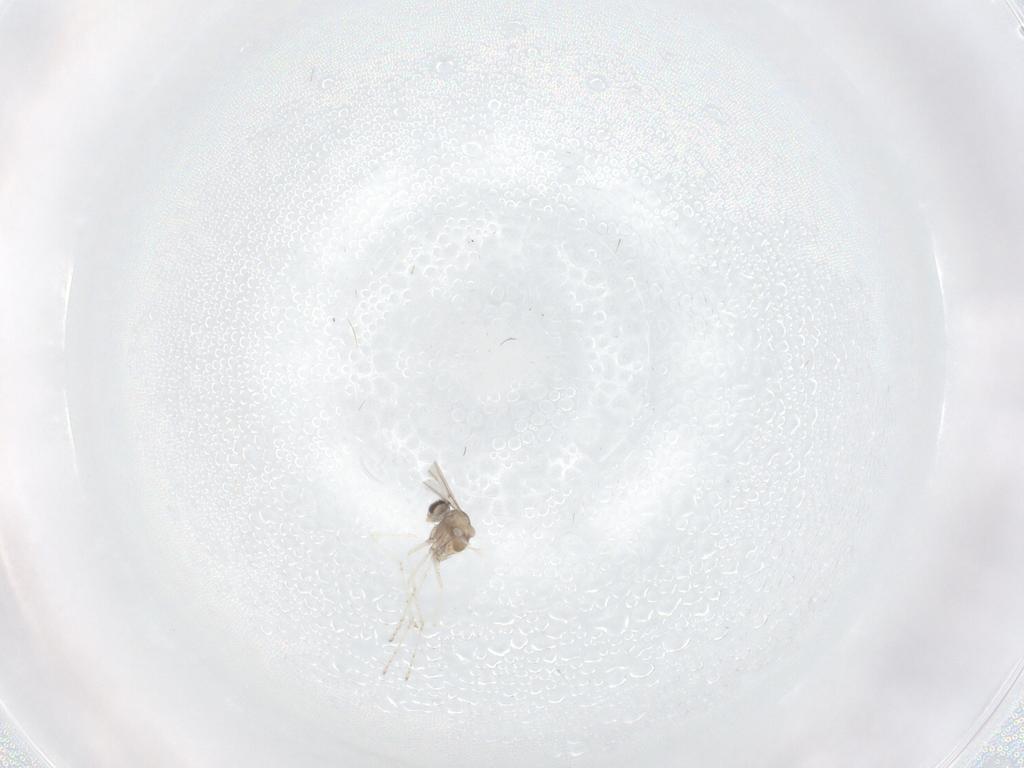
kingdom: Animalia
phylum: Arthropoda
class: Insecta
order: Diptera
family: Cecidomyiidae
